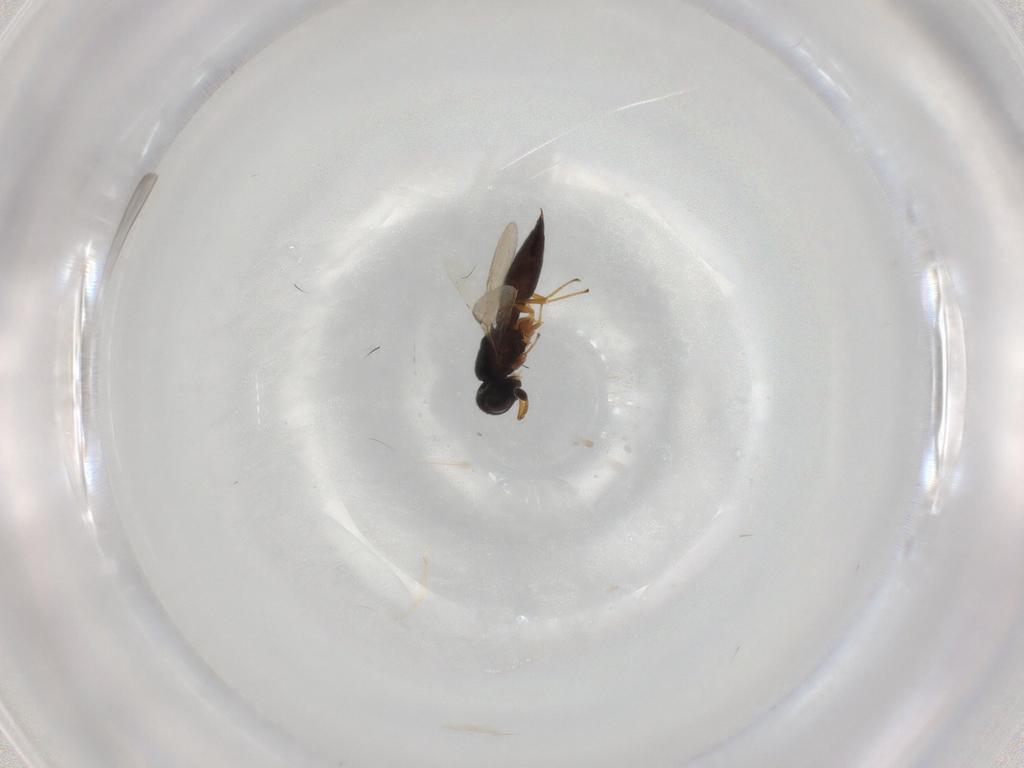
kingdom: Animalia
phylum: Arthropoda
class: Insecta
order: Hymenoptera
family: Scelionidae
